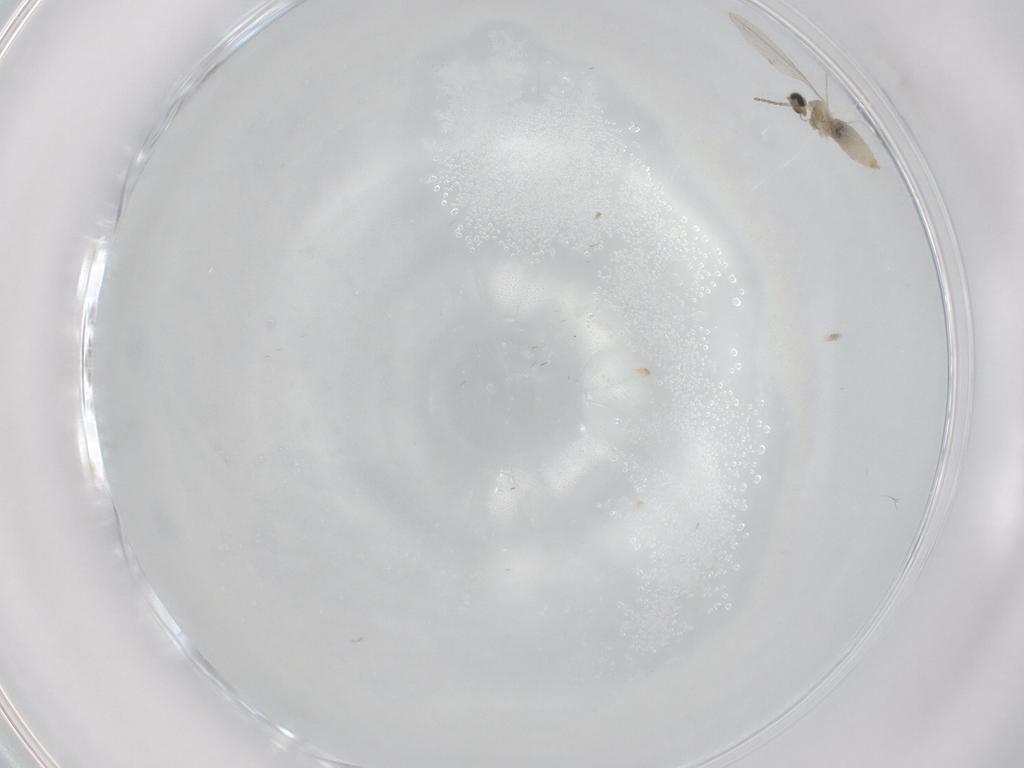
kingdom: Animalia
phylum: Arthropoda
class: Insecta
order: Diptera
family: Cecidomyiidae
